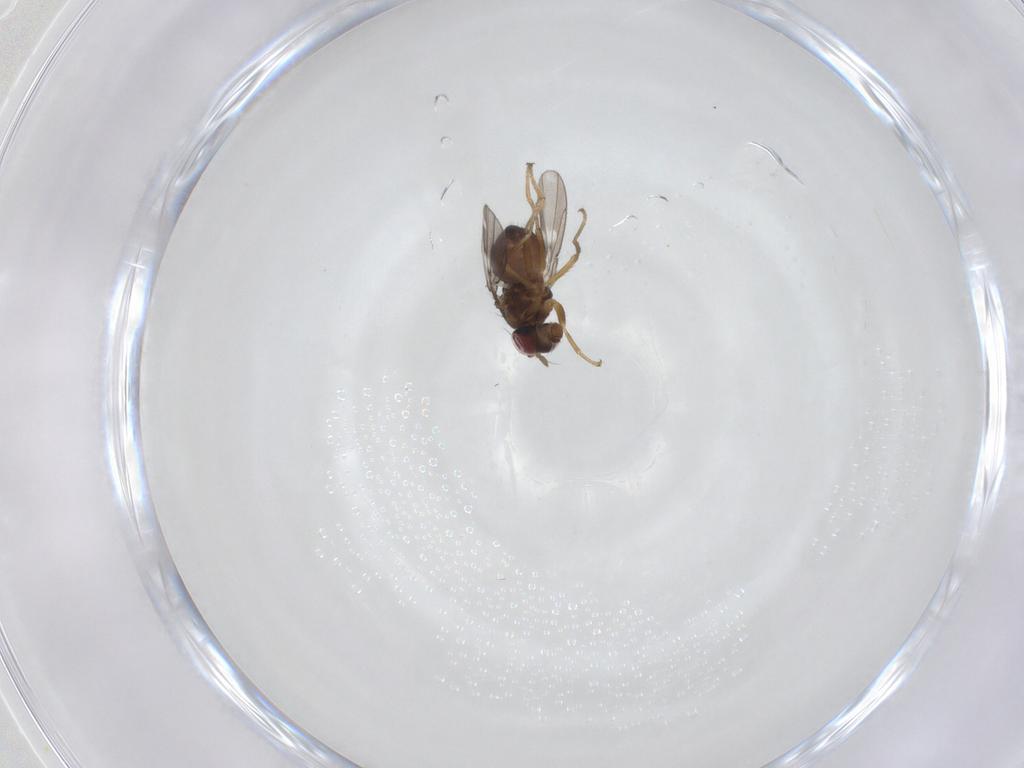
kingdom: Animalia
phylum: Arthropoda
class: Insecta
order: Diptera
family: Ephydridae
